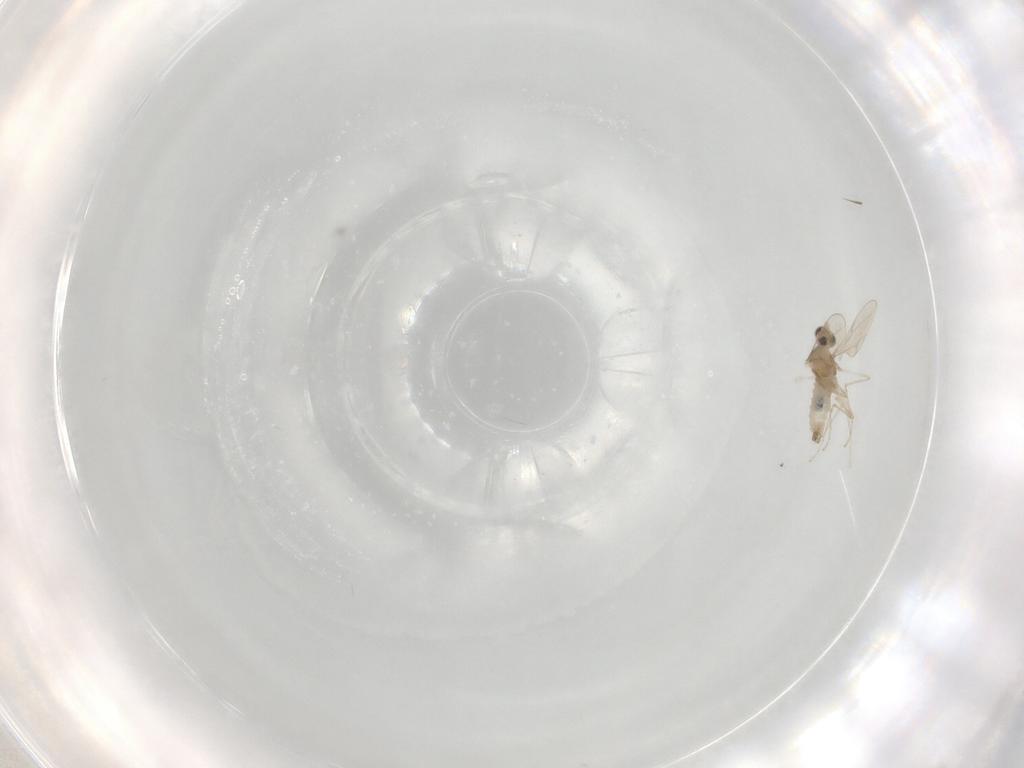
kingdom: Animalia
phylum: Arthropoda
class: Insecta
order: Diptera
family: Cecidomyiidae
